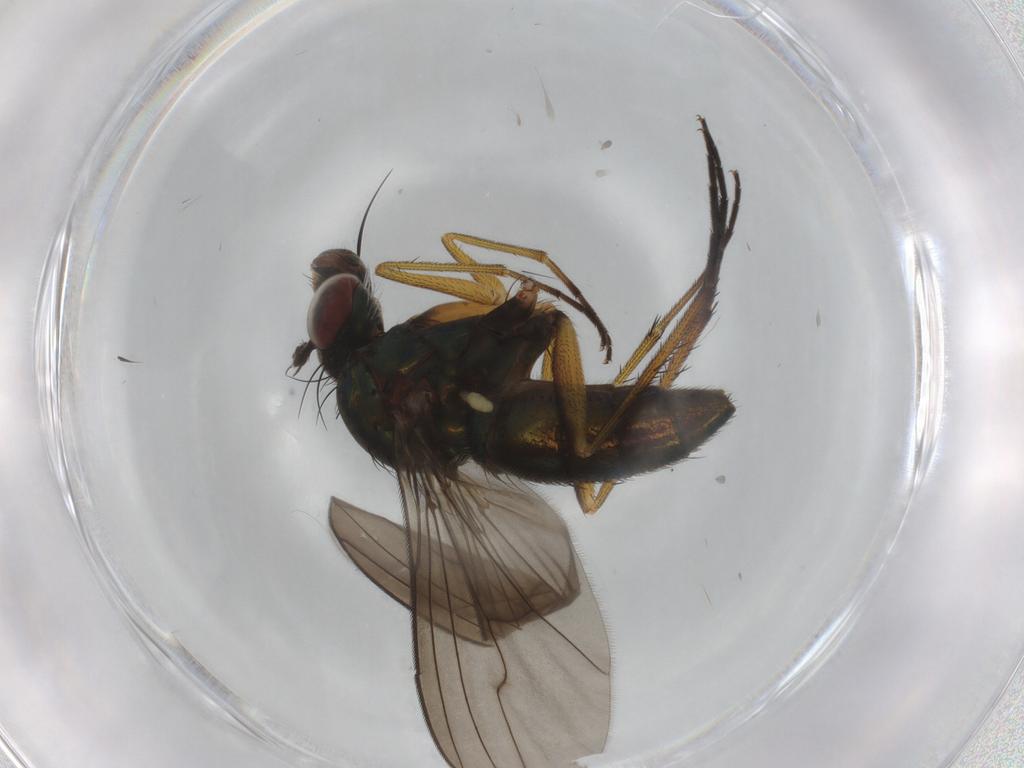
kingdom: Animalia
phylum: Arthropoda
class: Insecta
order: Diptera
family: Dolichopodidae
